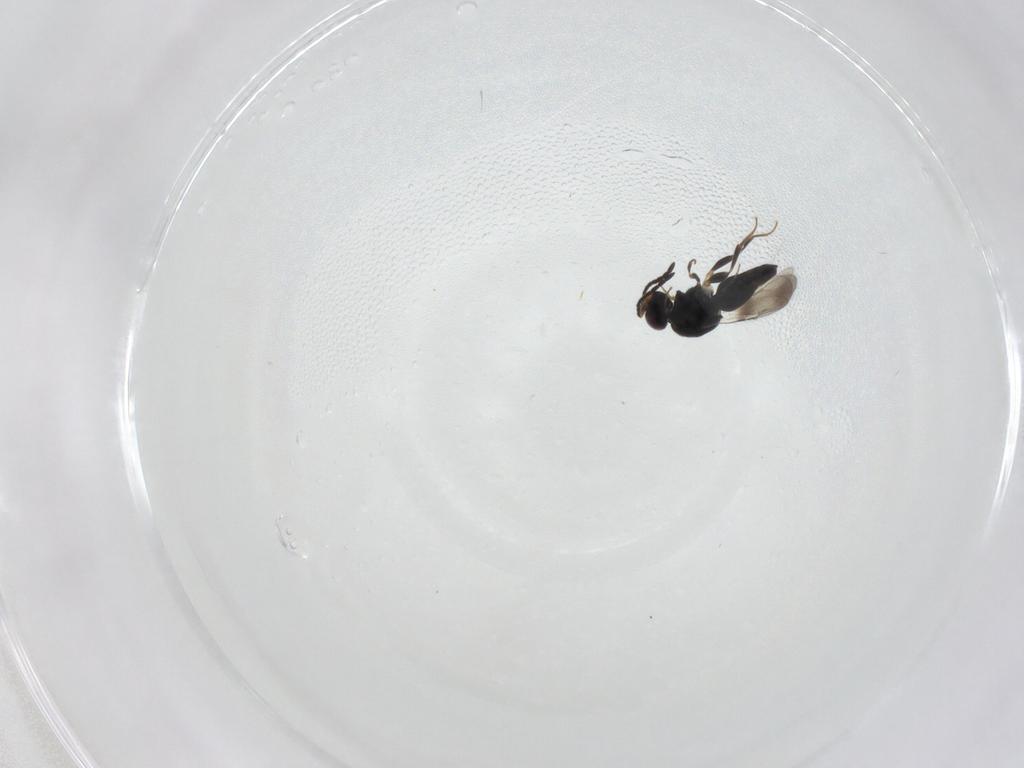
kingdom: Animalia
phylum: Arthropoda
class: Insecta
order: Hymenoptera
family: Ceraphronidae
